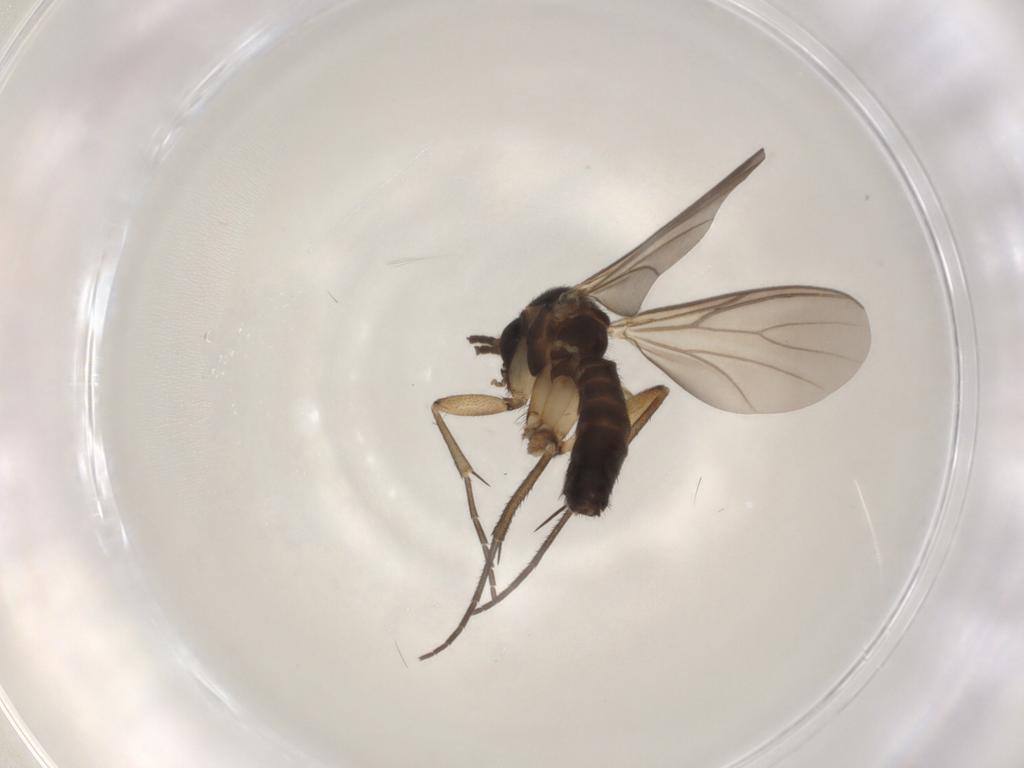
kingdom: Animalia
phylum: Arthropoda
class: Insecta
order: Diptera
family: Mycetophilidae
